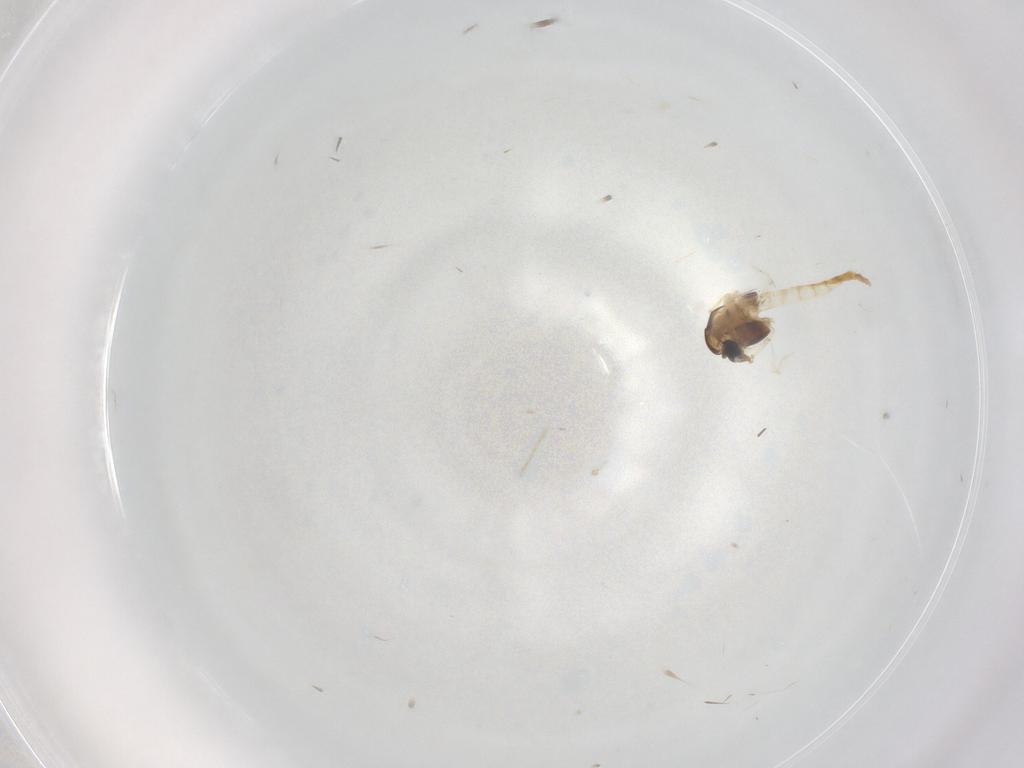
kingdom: Animalia
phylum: Arthropoda
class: Insecta
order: Diptera
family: Chironomidae
